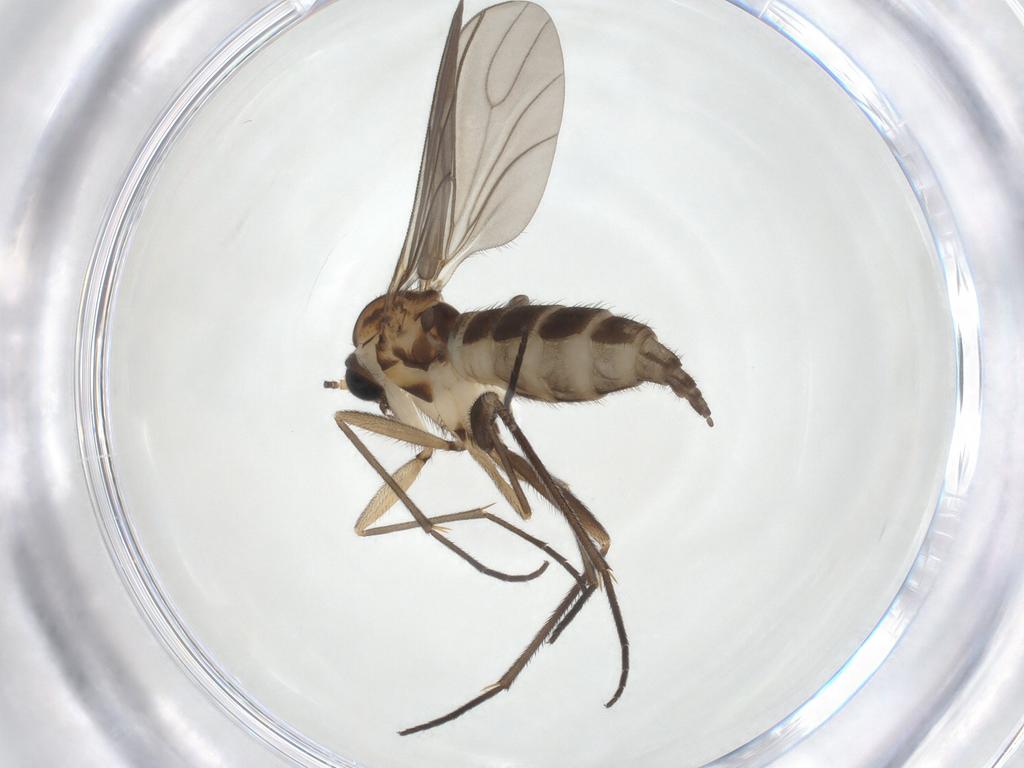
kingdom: Animalia
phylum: Arthropoda
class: Insecta
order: Diptera
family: Sciaridae
